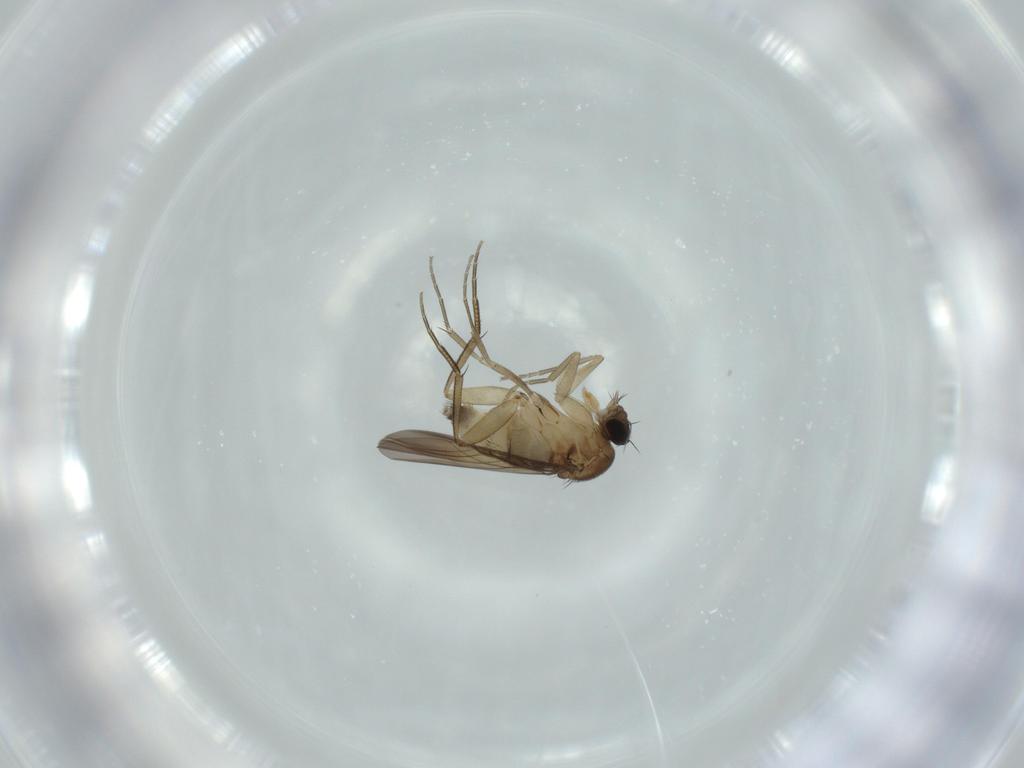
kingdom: Animalia
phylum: Arthropoda
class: Insecta
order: Diptera
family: Phoridae
